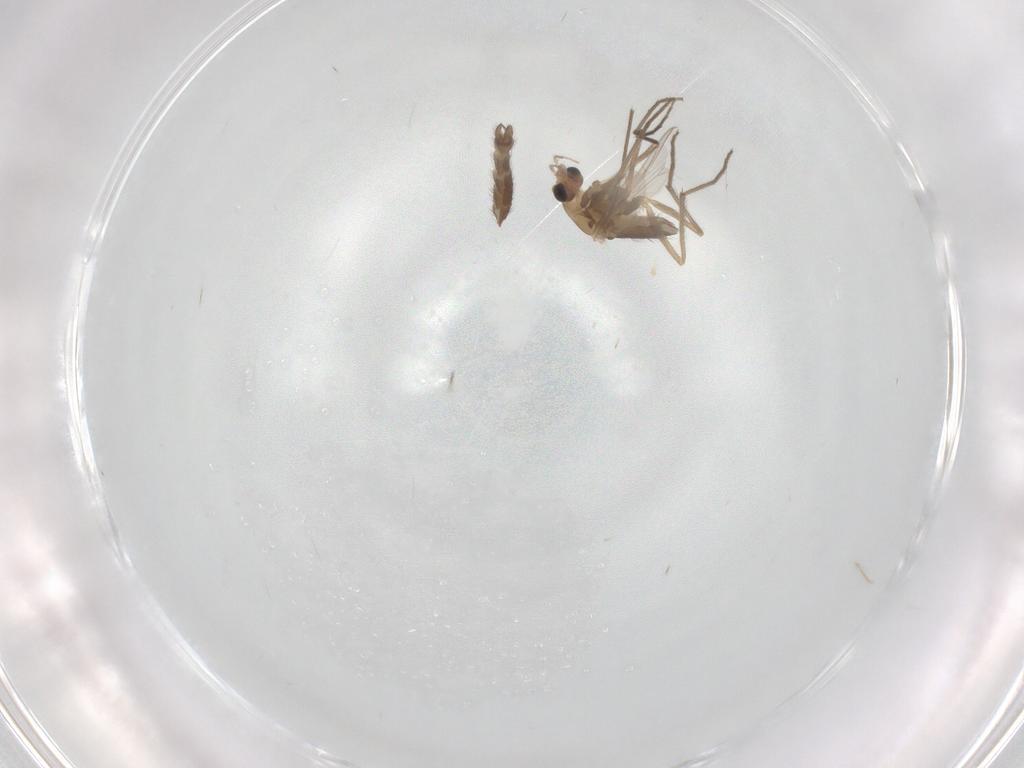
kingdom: Animalia
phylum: Arthropoda
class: Insecta
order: Diptera
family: Chironomidae
